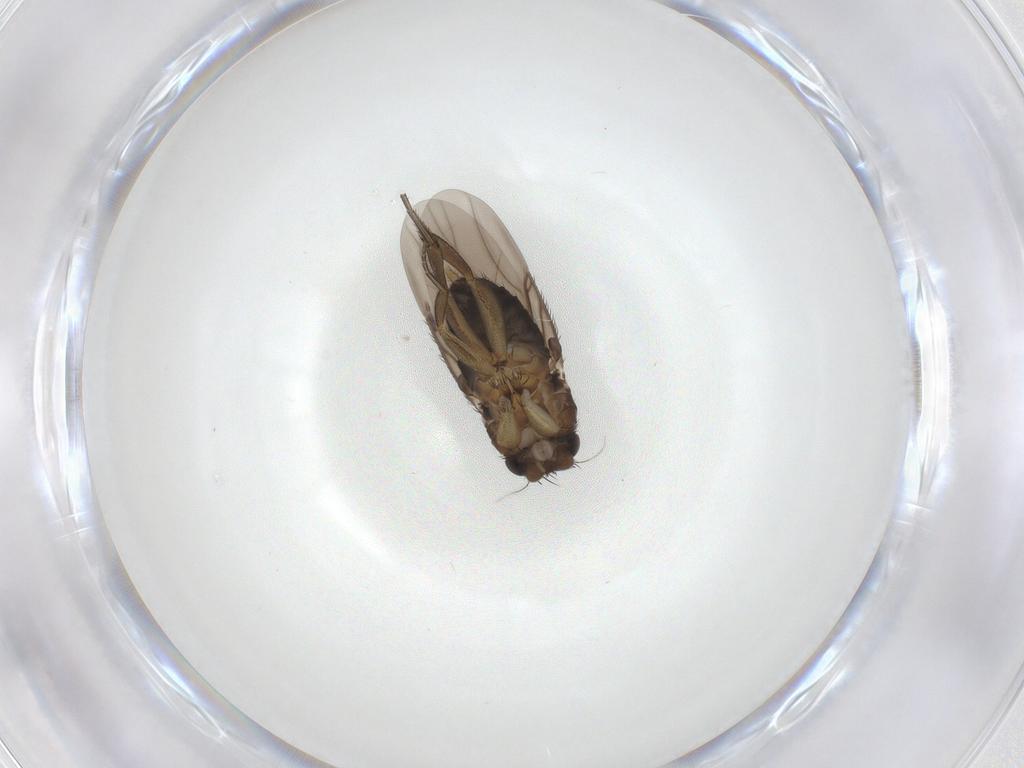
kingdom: Animalia
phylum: Arthropoda
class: Insecta
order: Diptera
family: Phoridae
